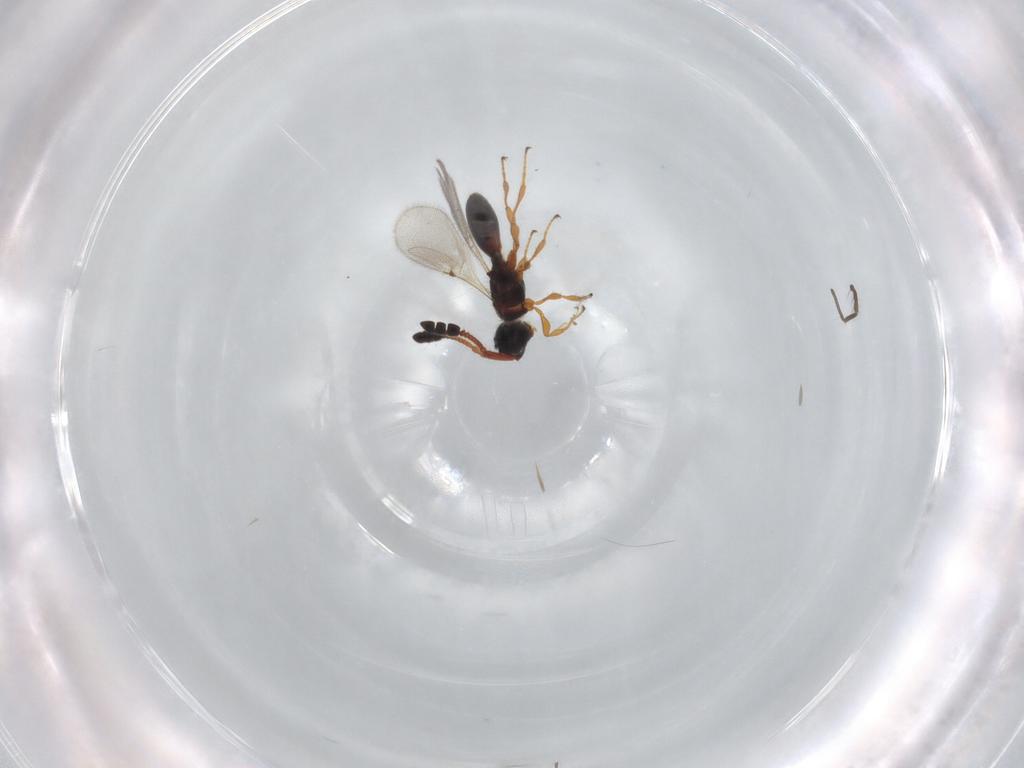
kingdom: Animalia
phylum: Arthropoda
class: Insecta
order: Hymenoptera
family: Diapriidae
